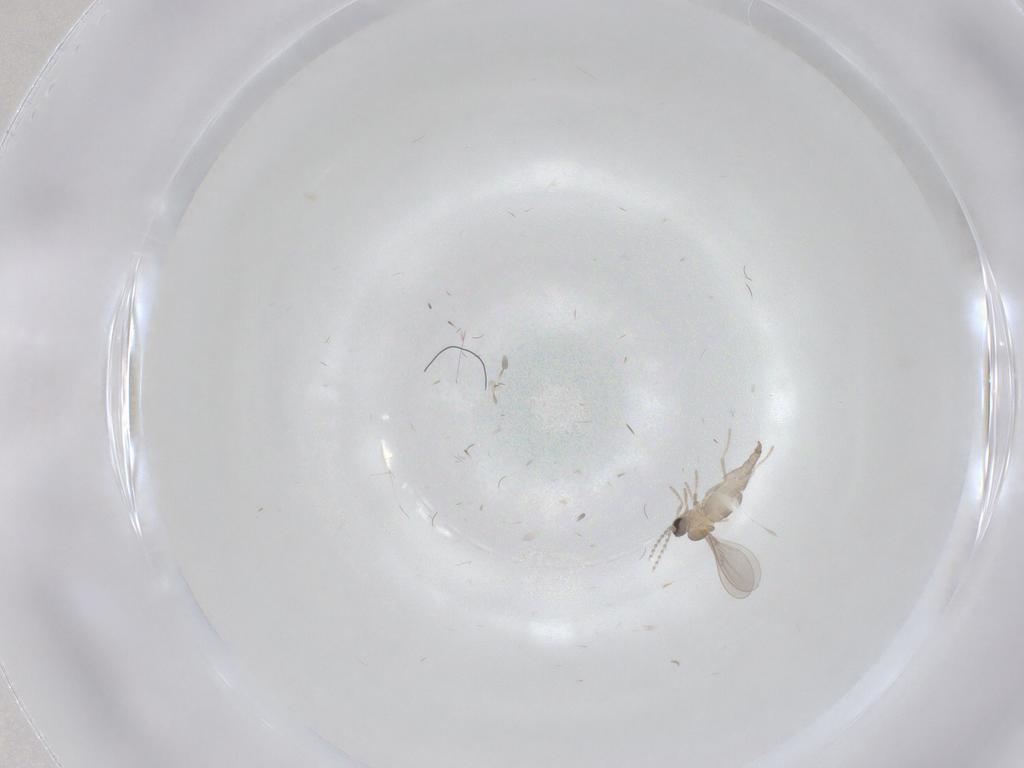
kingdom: Animalia
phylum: Arthropoda
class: Insecta
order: Diptera
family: Cecidomyiidae
